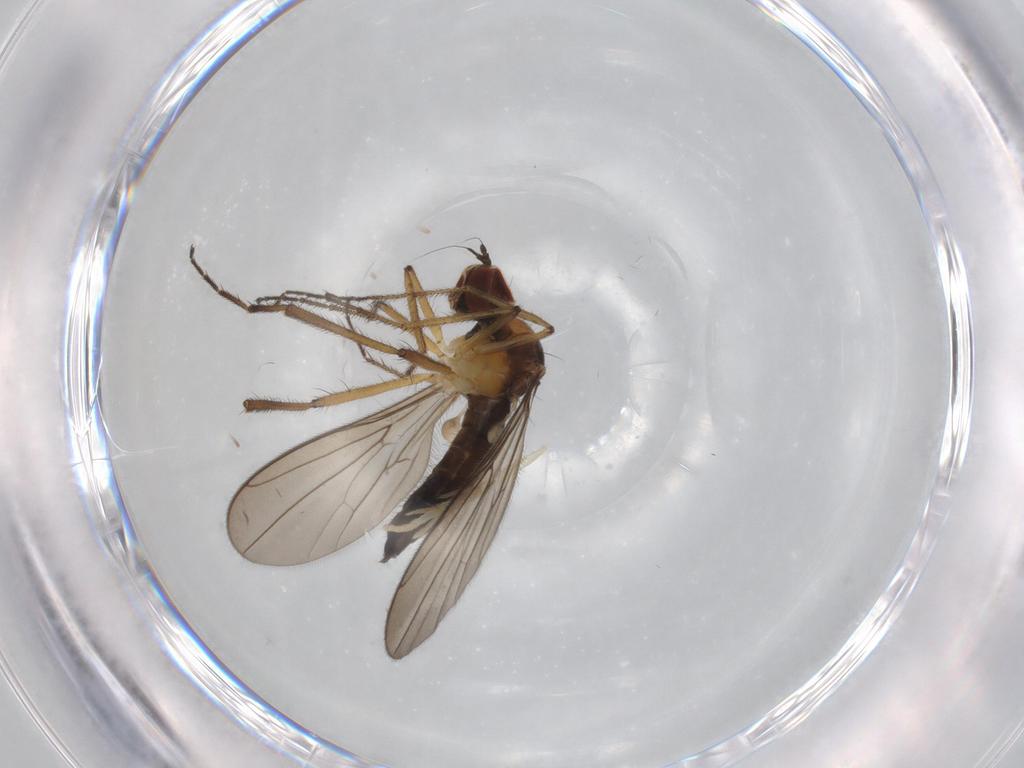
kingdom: Animalia
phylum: Arthropoda
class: Insecta
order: Diptera
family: Hybotidae
